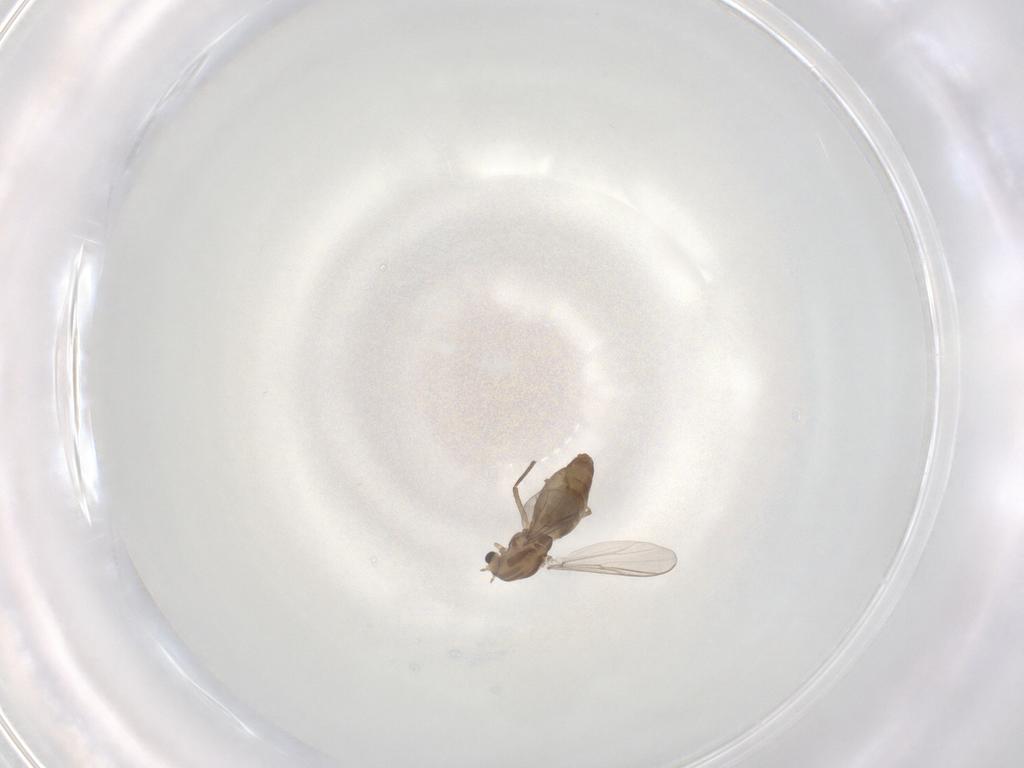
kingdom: Animalia
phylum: Arthropoda
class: Insecta
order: Diptera
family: Chironomidae
